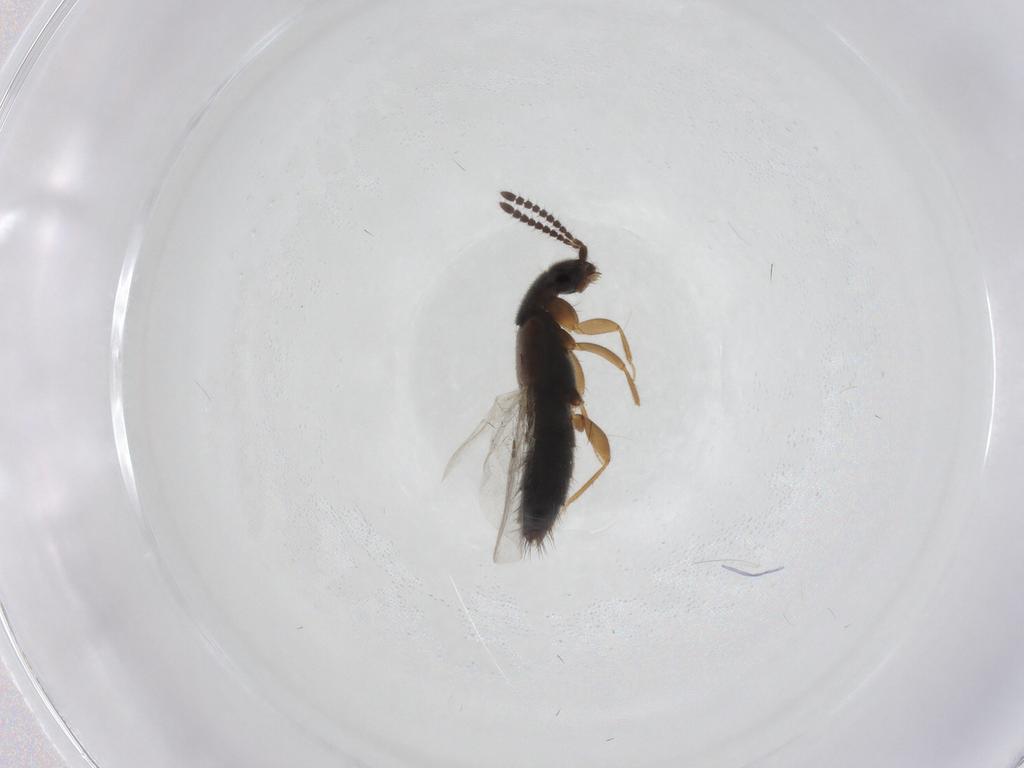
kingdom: Animalia
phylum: Arthropoda
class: Insecta
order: Coleoptera
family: Staphylinidae
